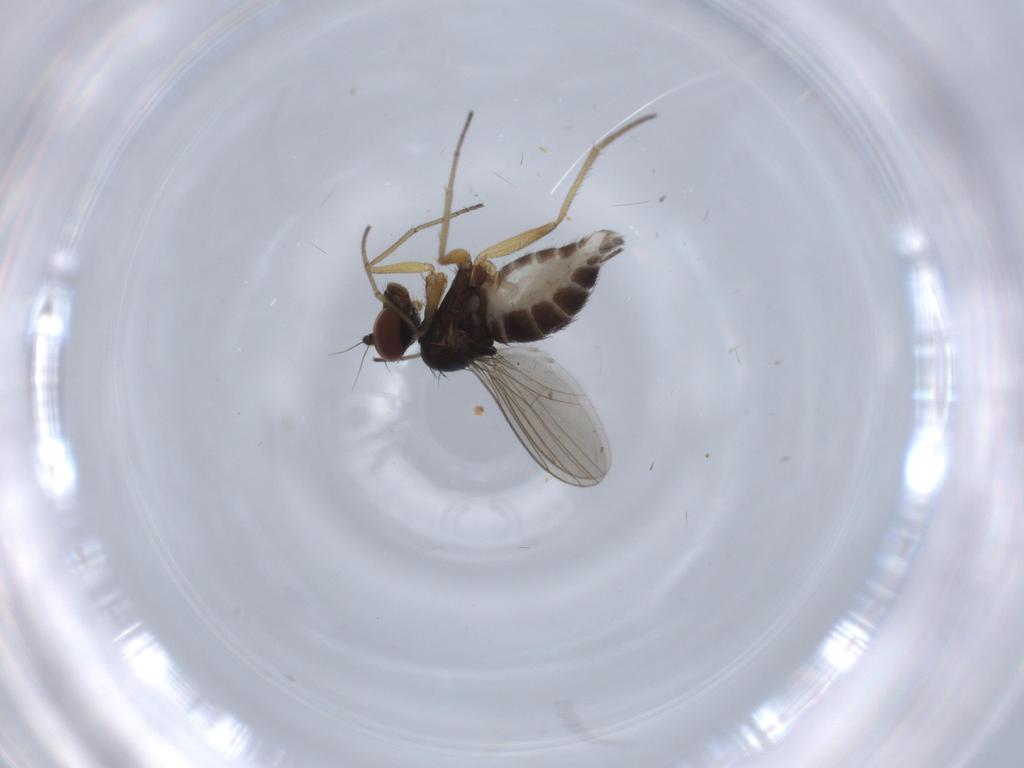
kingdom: Animalia
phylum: Arthropoda
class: Insecta
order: Diptera
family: Dolichopodidae
